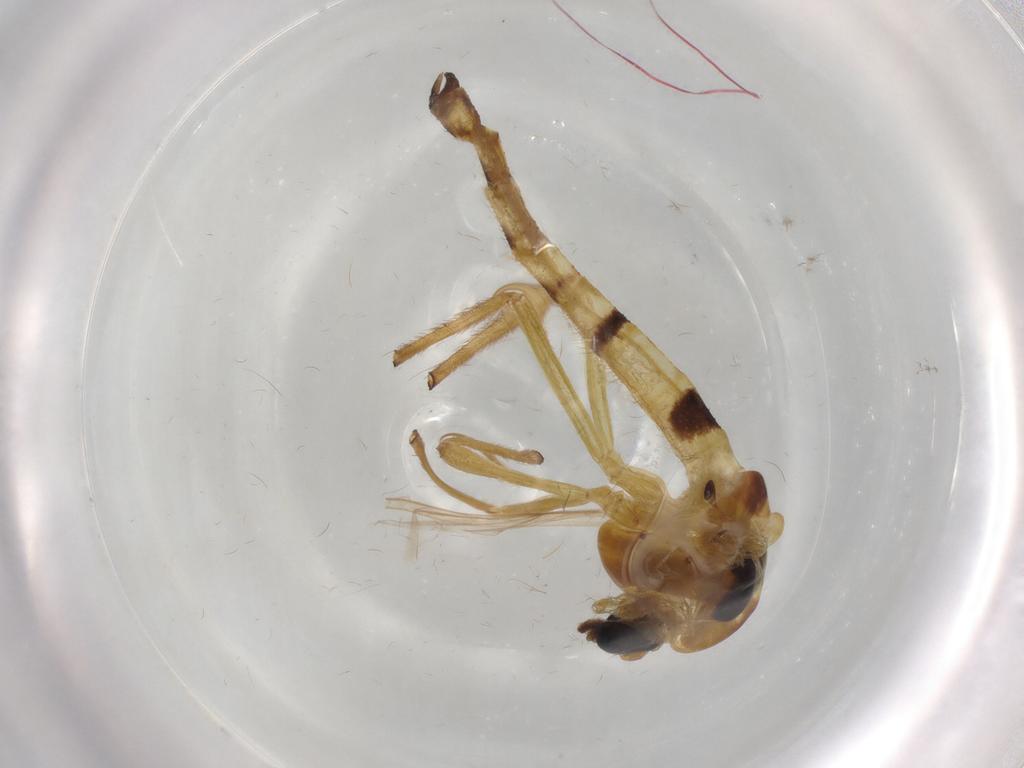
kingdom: Animalia
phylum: Arthropoda
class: Insecta
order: Diptera
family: Chironomidae
